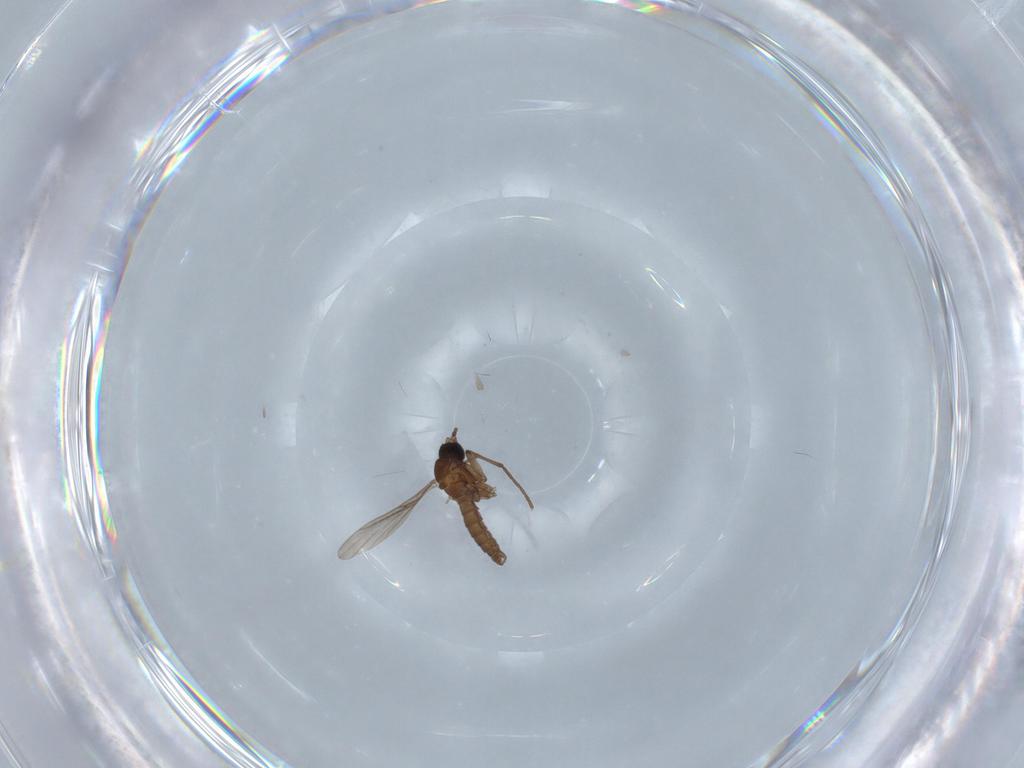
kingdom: Animalia
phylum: Arthropoda
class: Insecta
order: Diptera
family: Sciaridae
